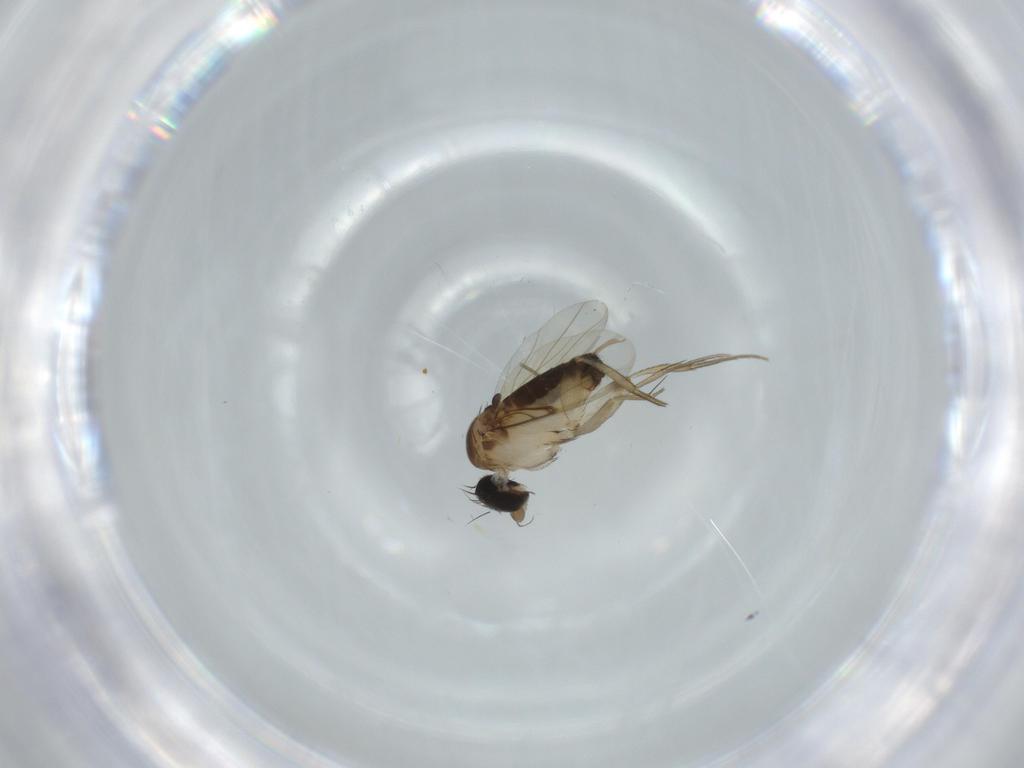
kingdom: Animalia
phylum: Arthropoda
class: Insecta
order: Diptera
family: Phoridae
